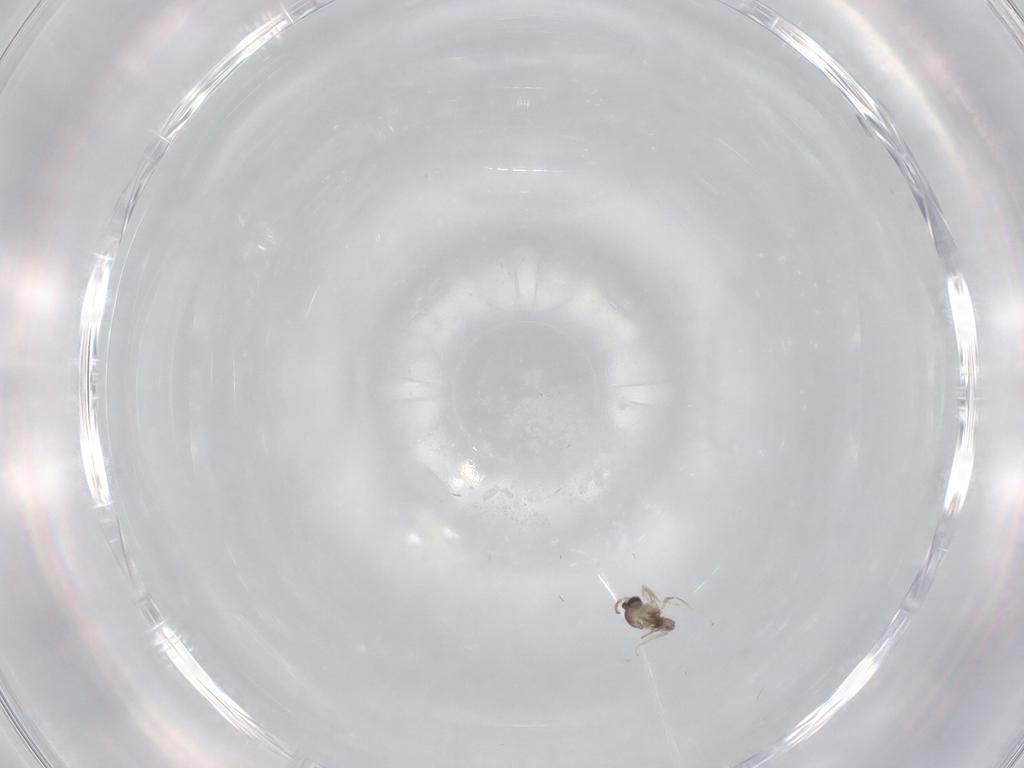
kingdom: Animalia
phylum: Arthropoda
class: Insecta
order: Diptera
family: Cecidomyiidae
